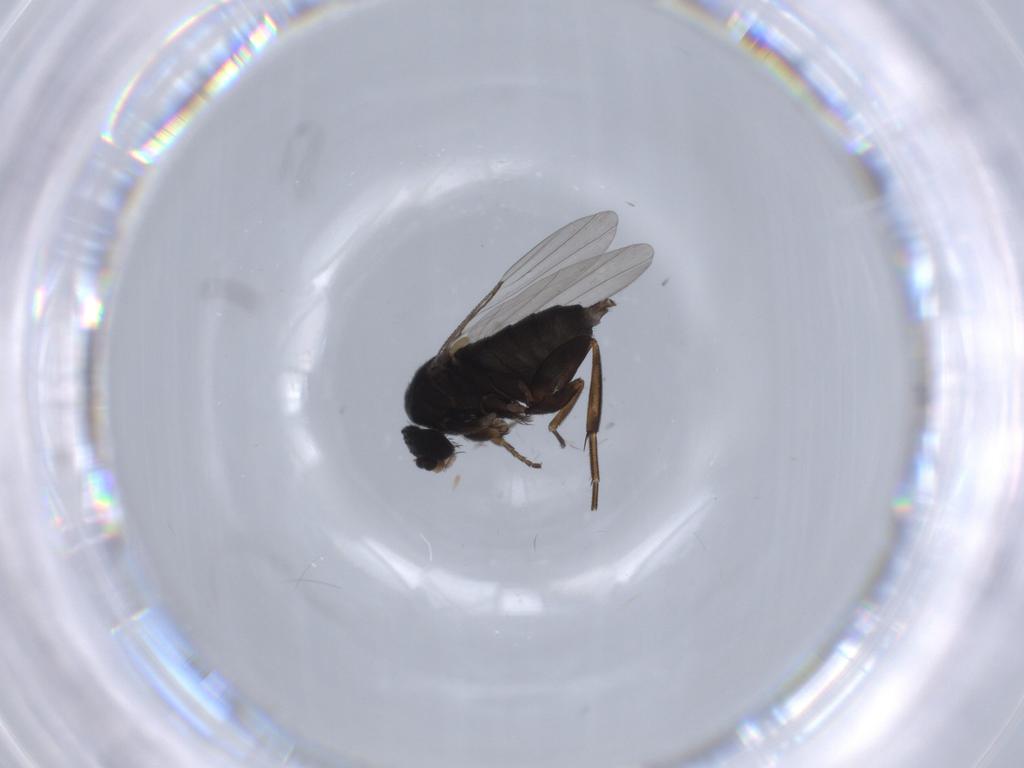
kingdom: Animalia
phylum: Arthropoda
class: Insecta
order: Diptera
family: Phoridae
